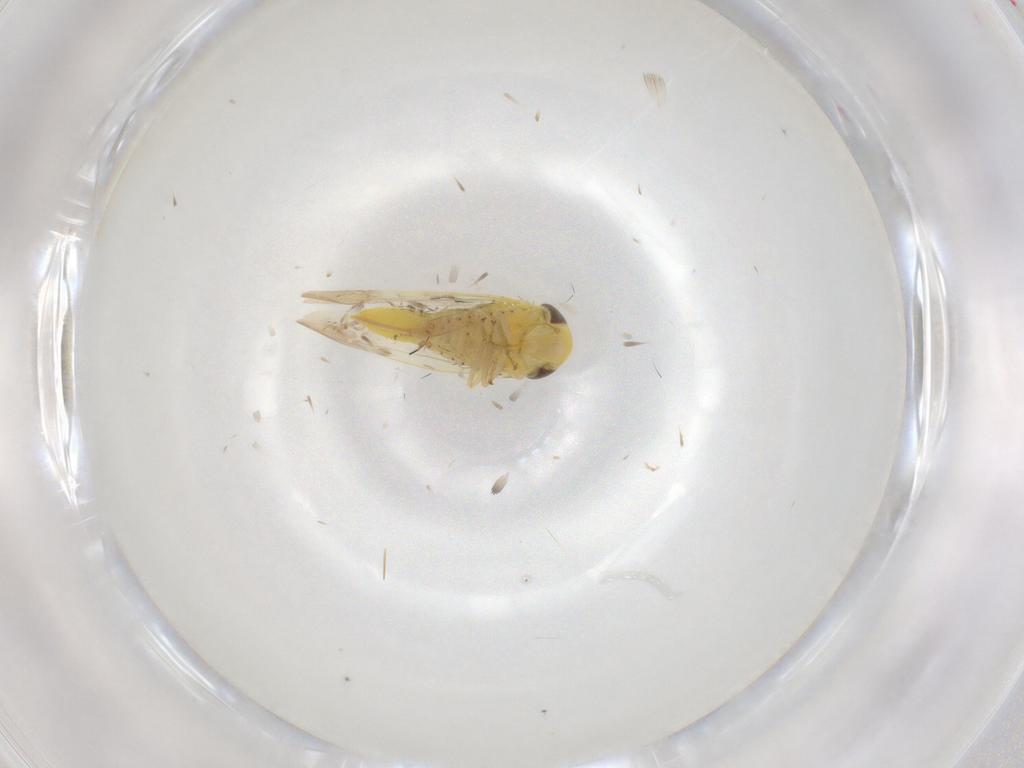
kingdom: Animalia
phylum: Arthropoda
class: Insecta
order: Hemiptera
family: Cicadellidae
